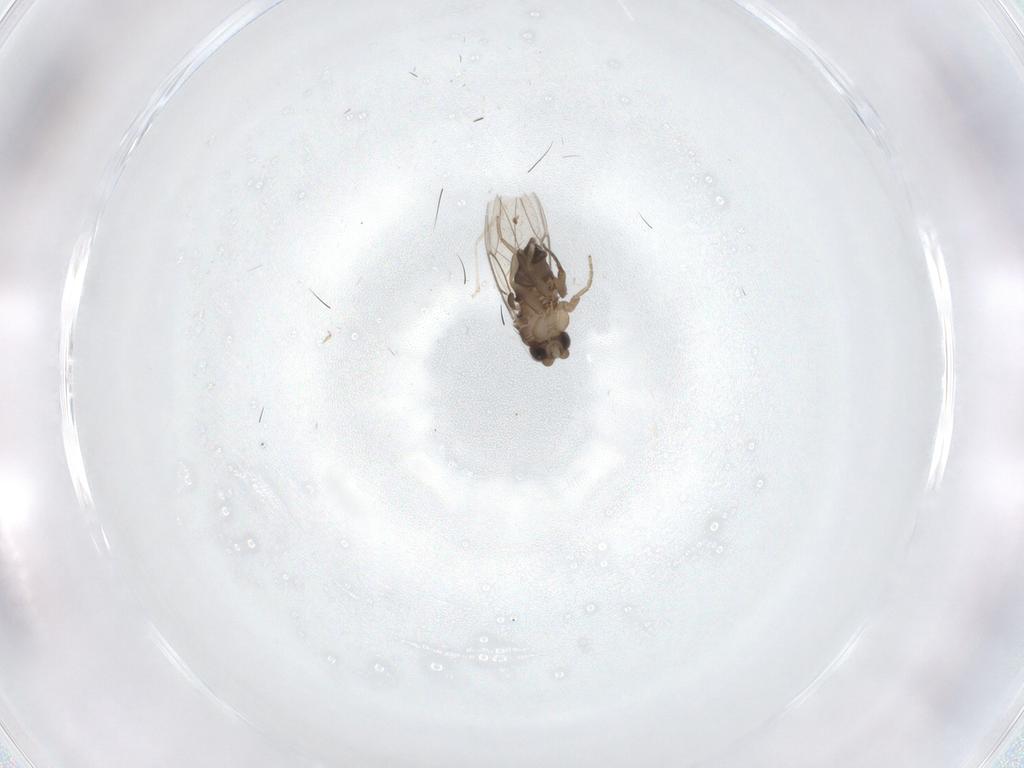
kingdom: Animalia
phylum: Arthropoda
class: Insecta
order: Diptera
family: Phoridae
